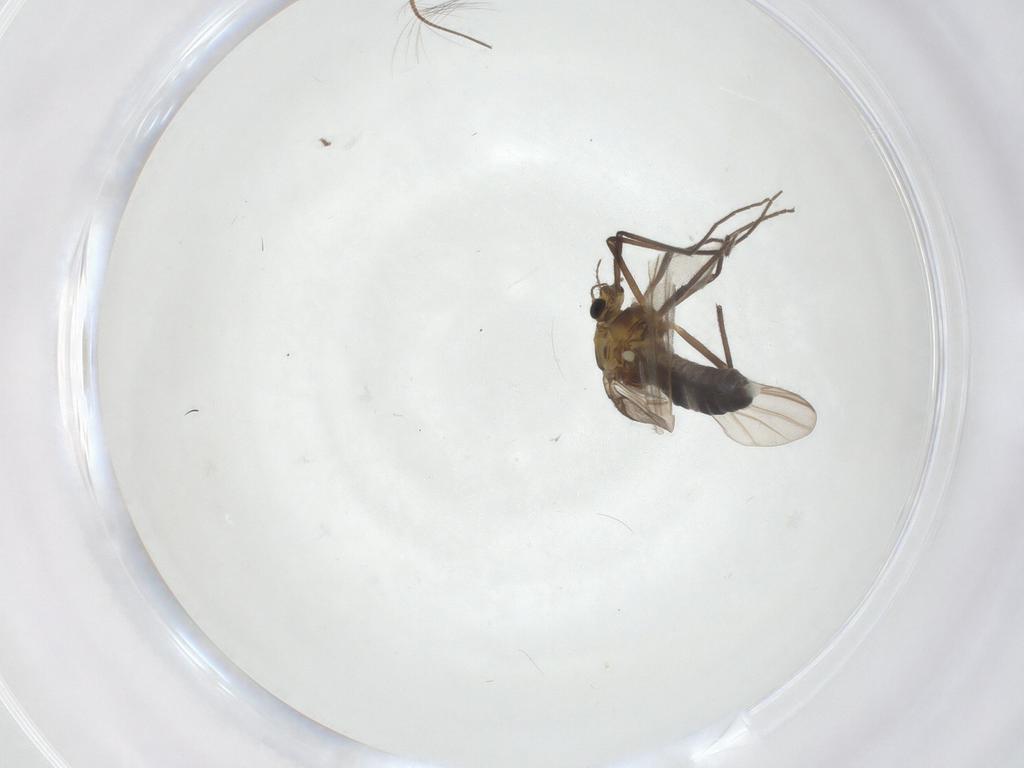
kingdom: Animalia
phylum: Arthropoda
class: Insecta
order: Diptera
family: Chironomidae
